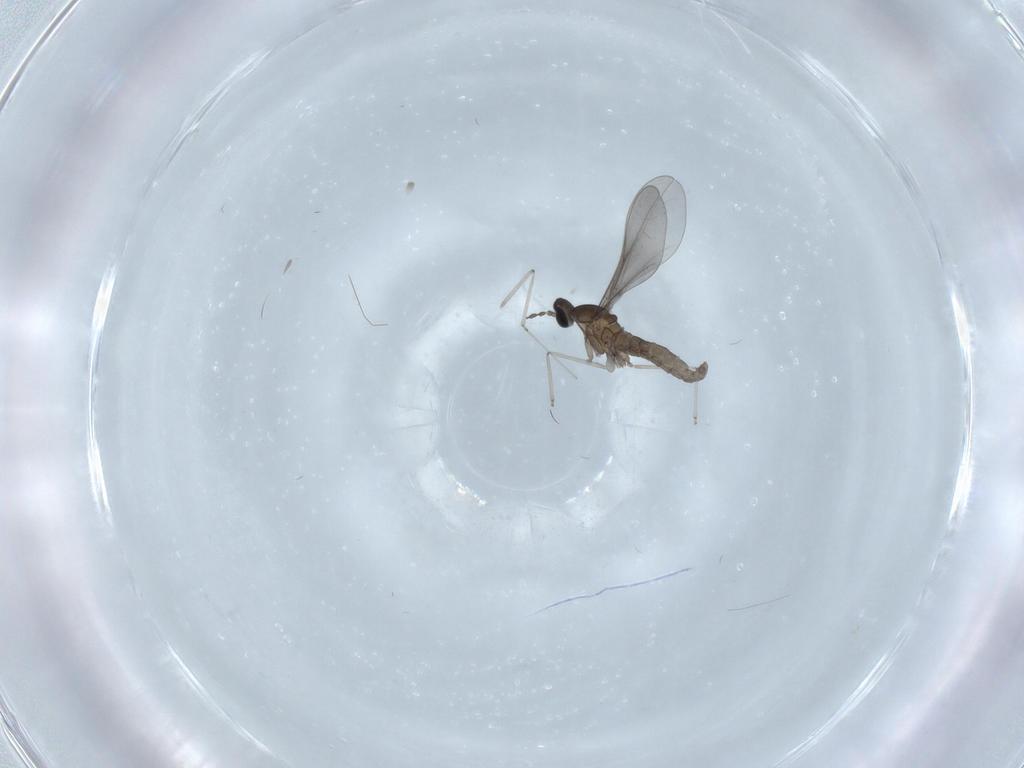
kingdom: Animalia
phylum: Arthropoda
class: Insecta
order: Diptera
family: Cecidomyiidae
